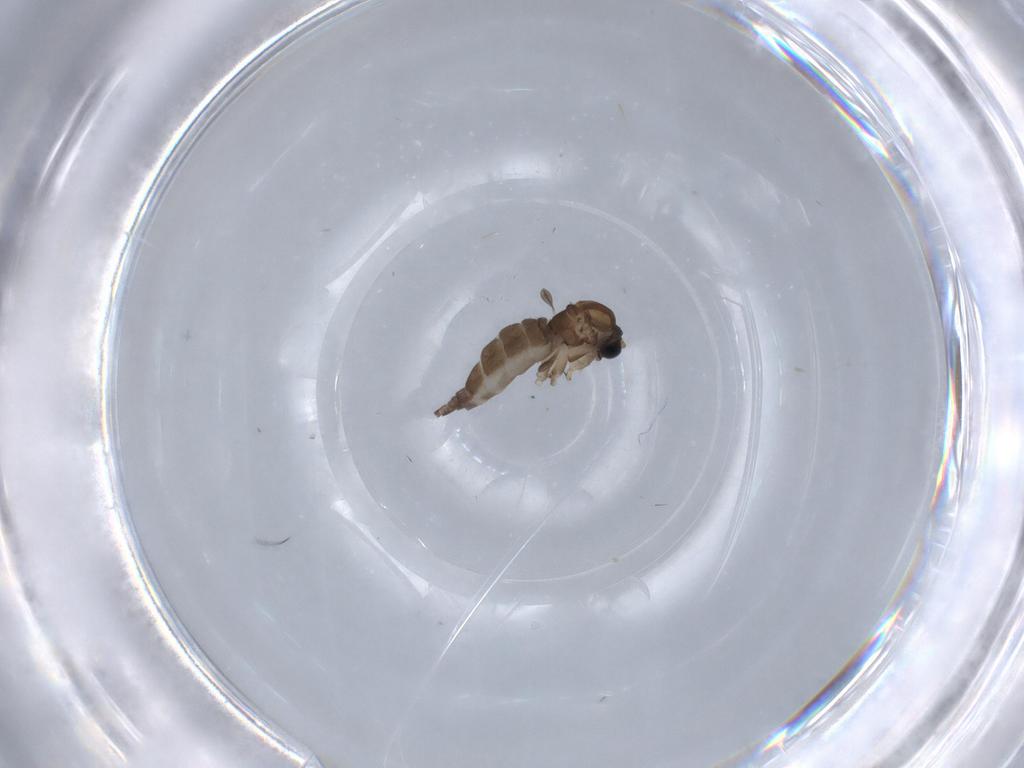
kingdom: Animalia
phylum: Arthropoda
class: Insecta
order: Diptera
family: Sciaridae
